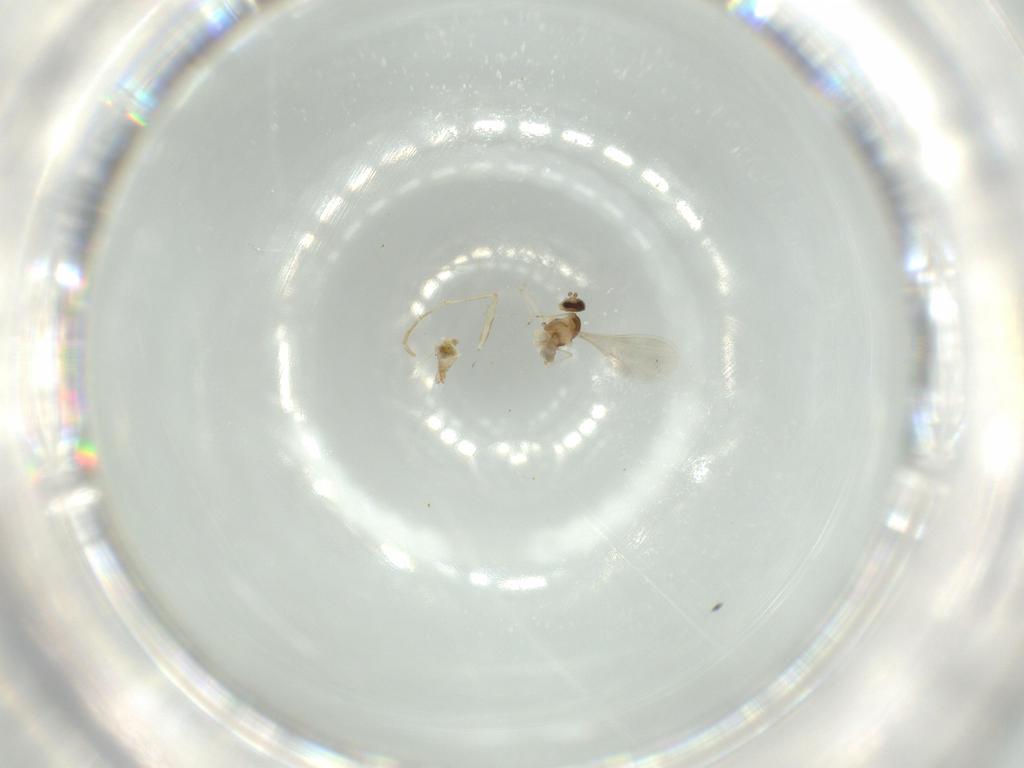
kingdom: Animalia
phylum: Arthropoda
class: Insecta
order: Diptera
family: Cecidomyiidae
